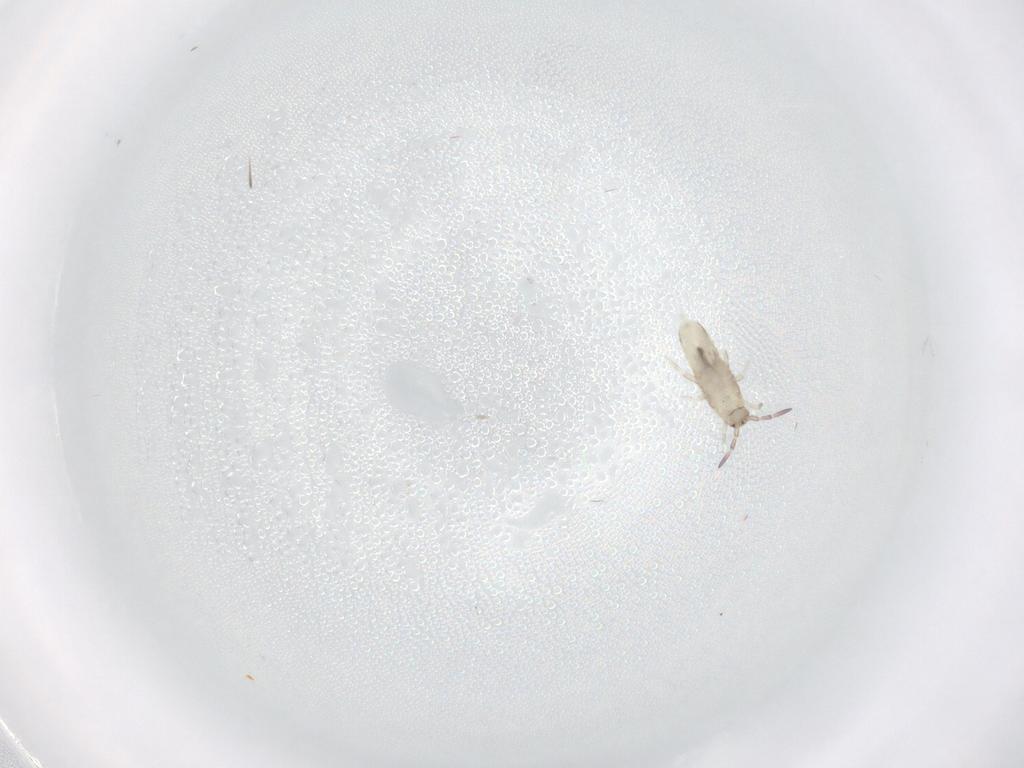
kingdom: Animalia
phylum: Arthropoda
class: Collembola
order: Entomobryomorpha
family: Entomobryidae
